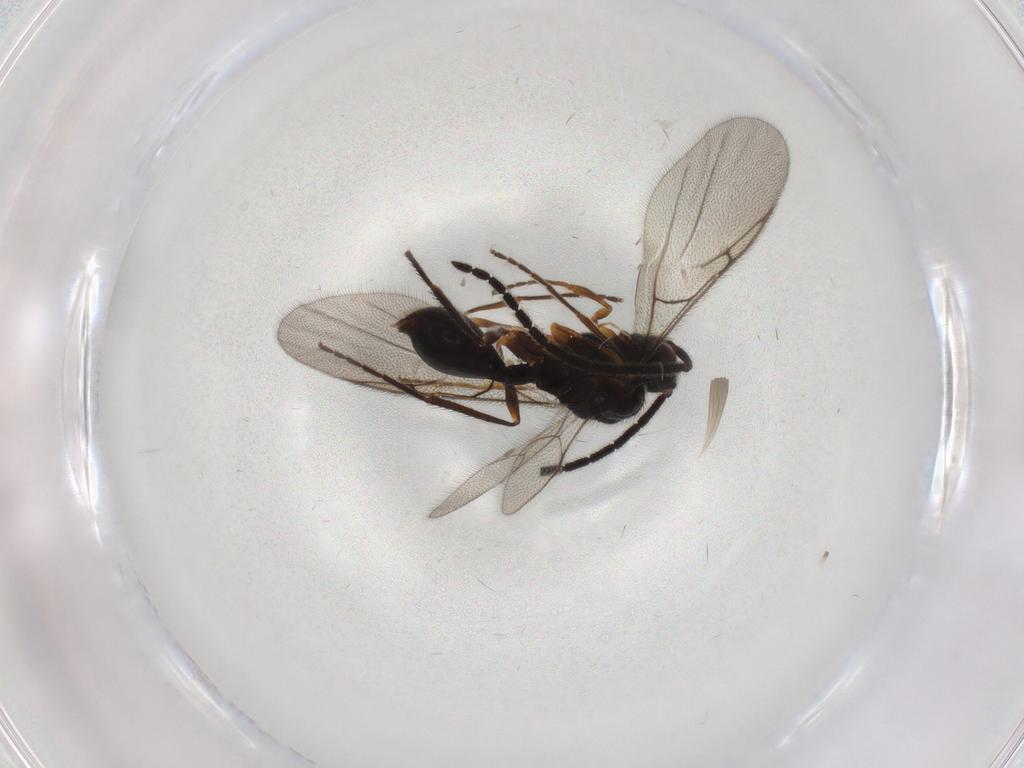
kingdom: Animalia
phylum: Arthropoda
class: Insecta
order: Hymenoptera
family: Diapriidae
